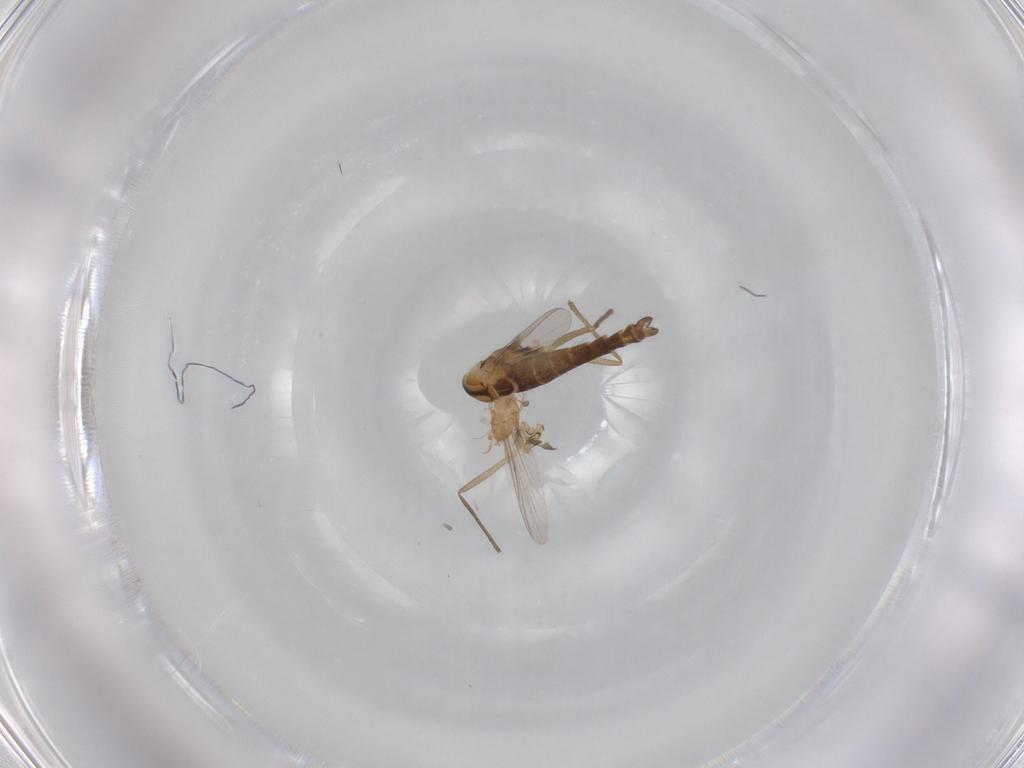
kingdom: Animalia
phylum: Arthropoda
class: Insecta
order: Diptera
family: Chironomidae
